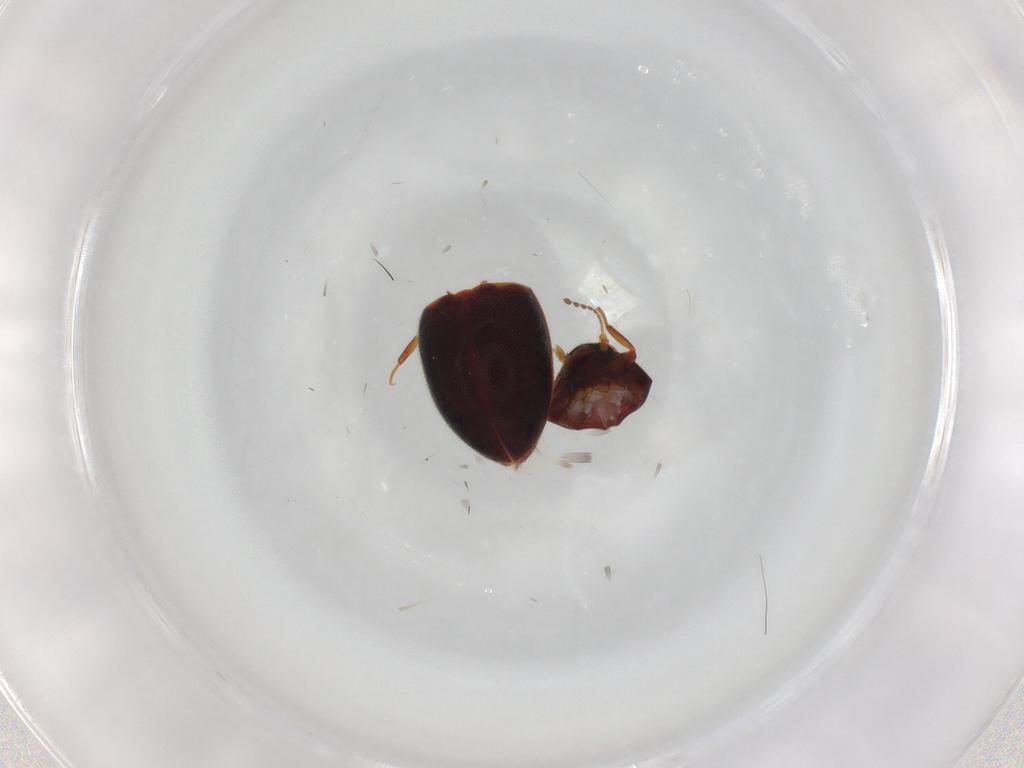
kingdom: Animalia
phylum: Arthropoda
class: Insecta
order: Coleoptera
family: Limnichidae
